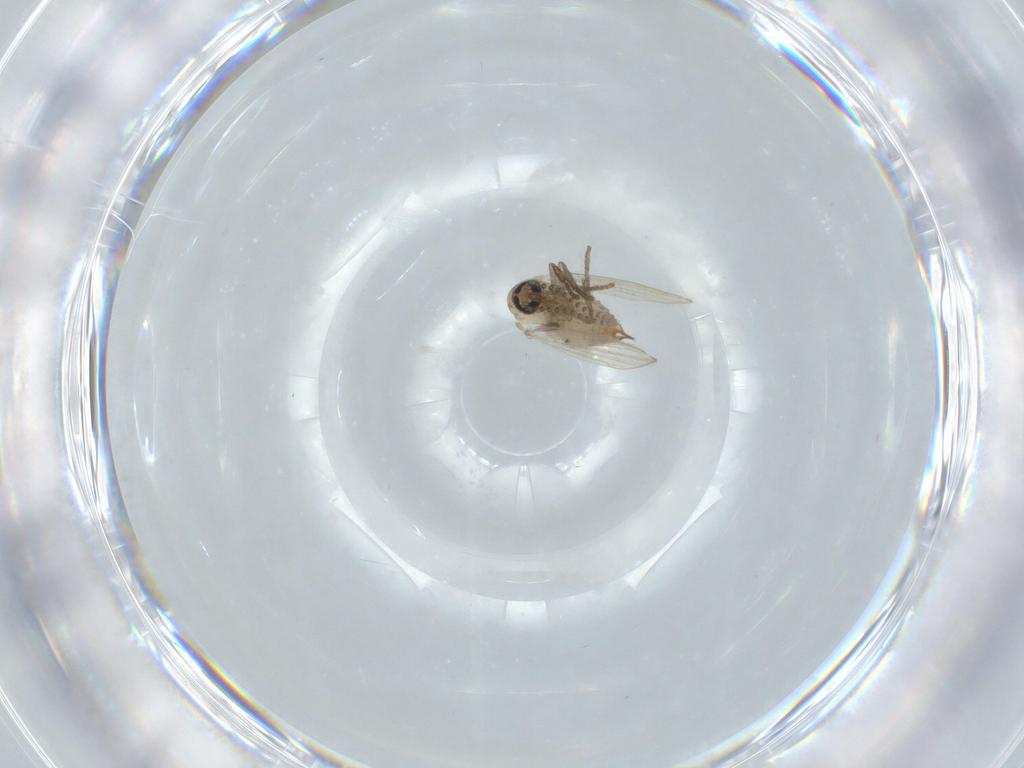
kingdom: Animalia
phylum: Arthropoda
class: Insecta
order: Diptera
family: Psychodidae
